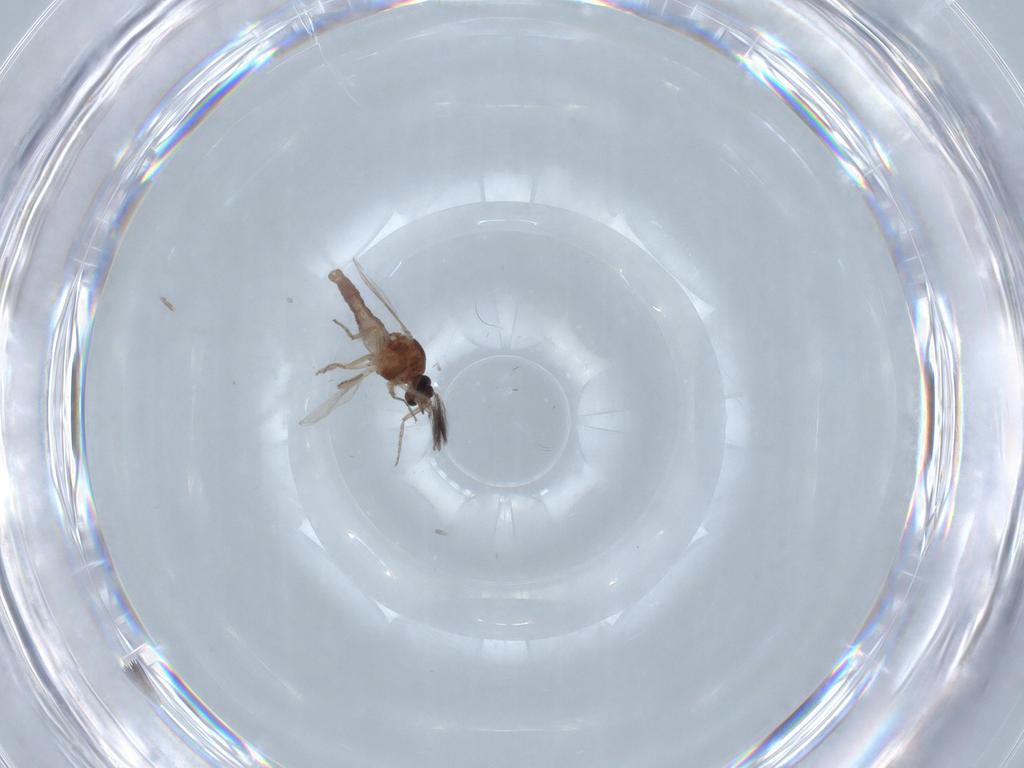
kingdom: Animalia
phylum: Arthropoda
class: Insecta
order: Diptera
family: Ceratopogonidae
